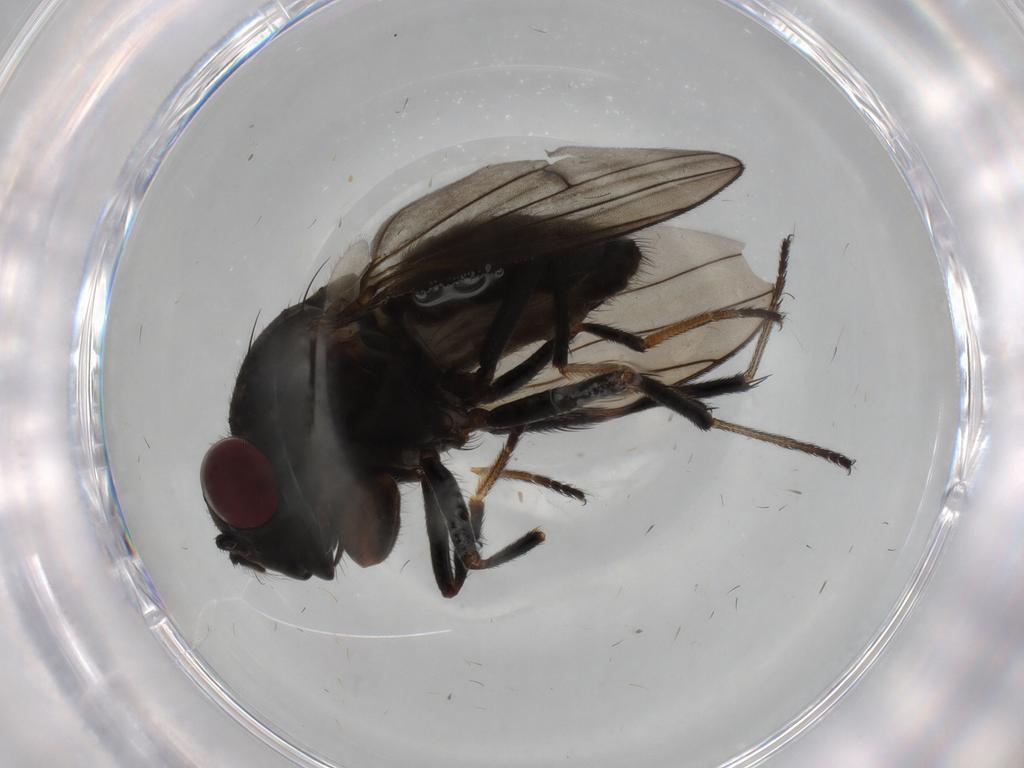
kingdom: Animalia
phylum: Arthropoda
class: Insecta
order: Diptera
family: Ephydridae
